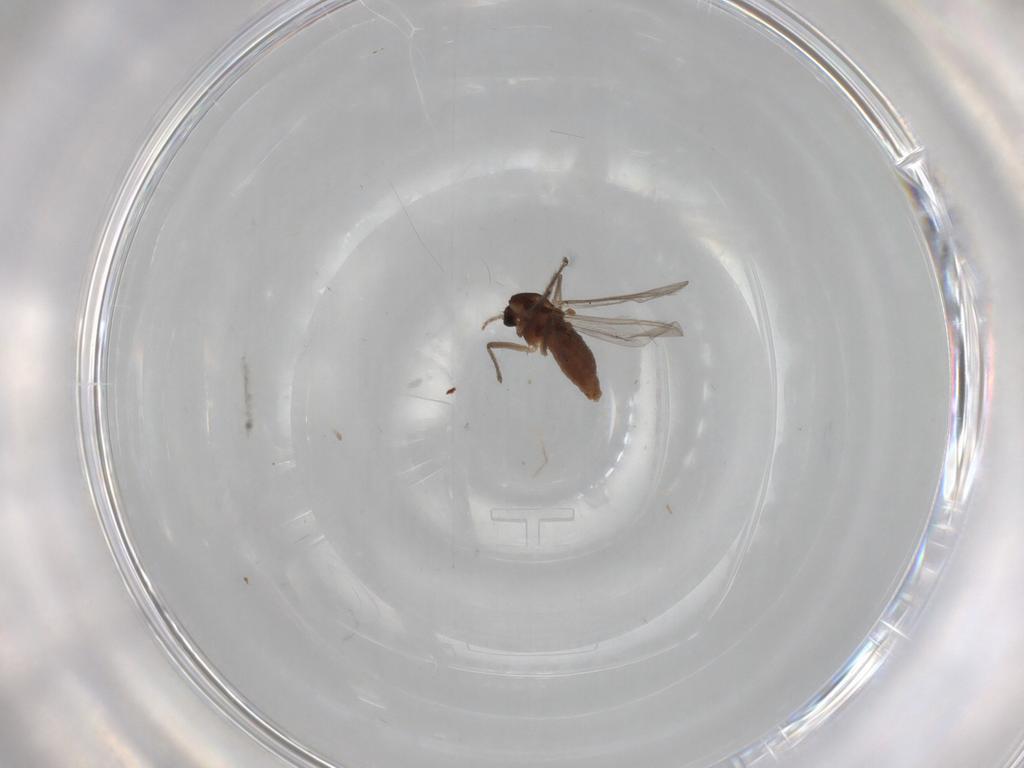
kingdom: Animalia
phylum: Arthropoda
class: Insecta
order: Diptera
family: Chironomidae
